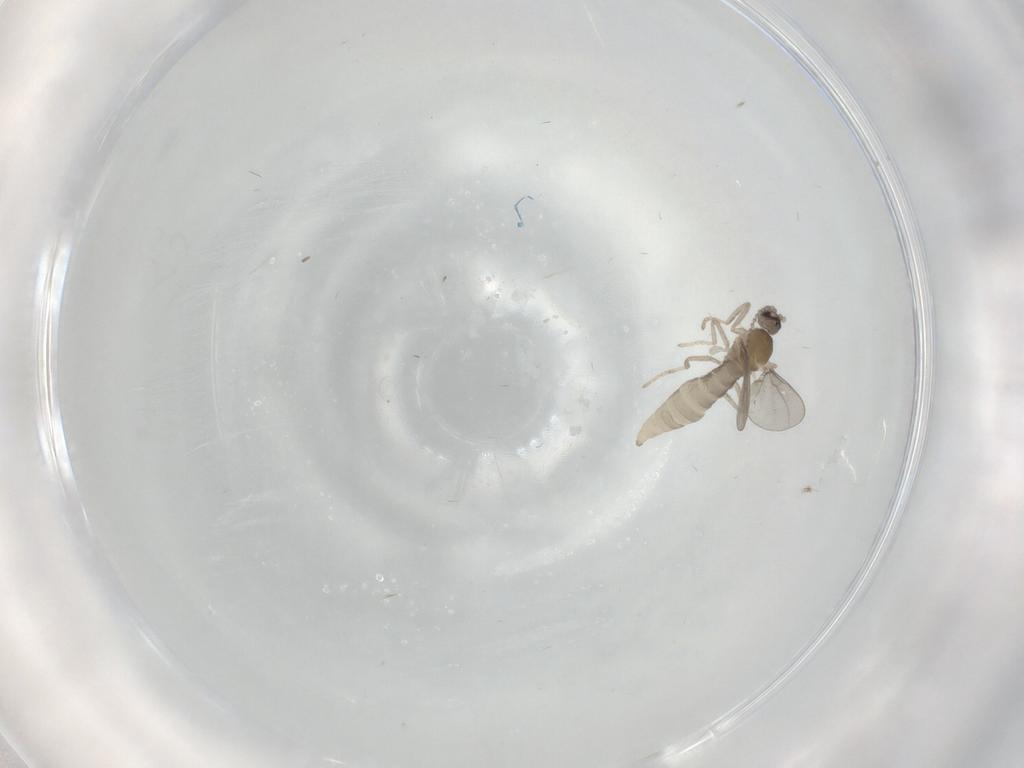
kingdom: Animalia
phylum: Arthropoda
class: Insecta
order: Diptera
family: Cecidomyiidae
